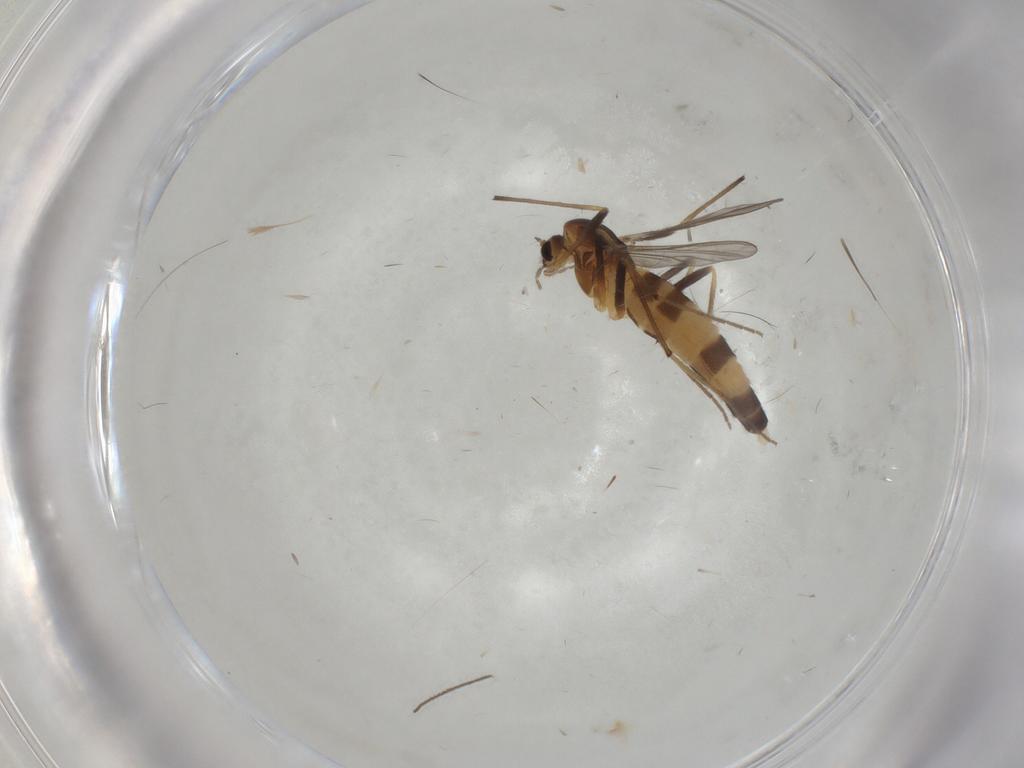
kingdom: Animalia
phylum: Arthropoda
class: Insecta
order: Diptera
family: Chironomidae
